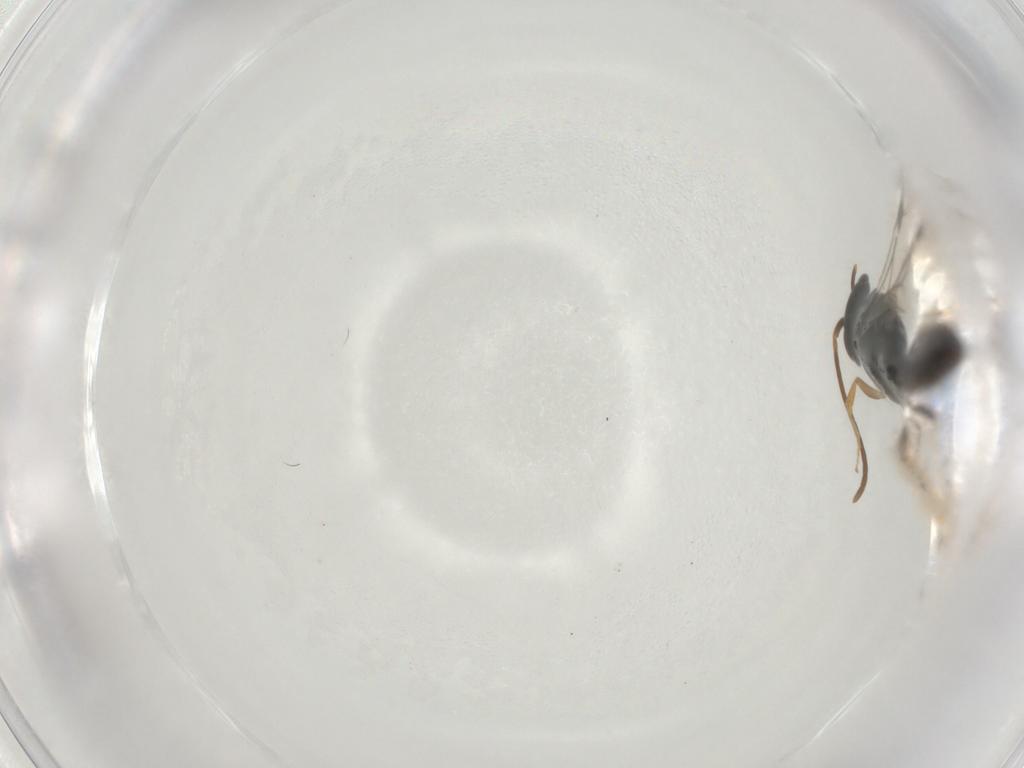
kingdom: Animalia
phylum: Arthropoda
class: Insecta
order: Hymenoptera
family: Bethylidae
